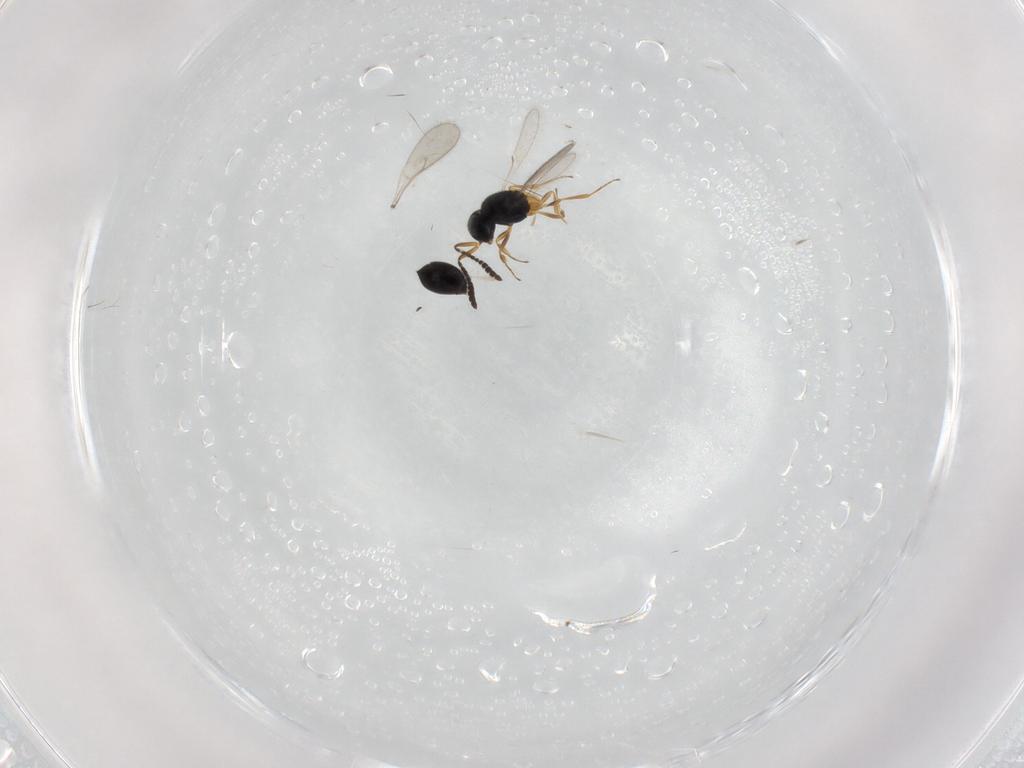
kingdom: Animalia
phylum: Arthropoda
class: Insecta
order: Hymenoptera
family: Scelionidae
